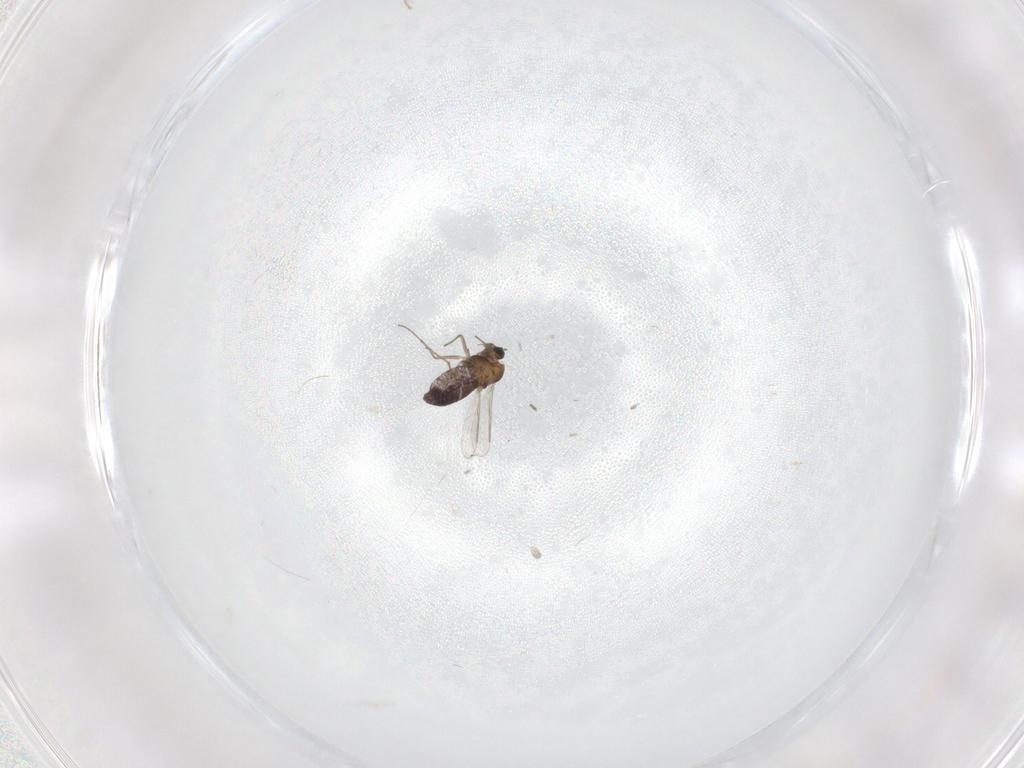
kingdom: Animalia
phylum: Arthropoda
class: Insecta
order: Diptera
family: Chironomidae
